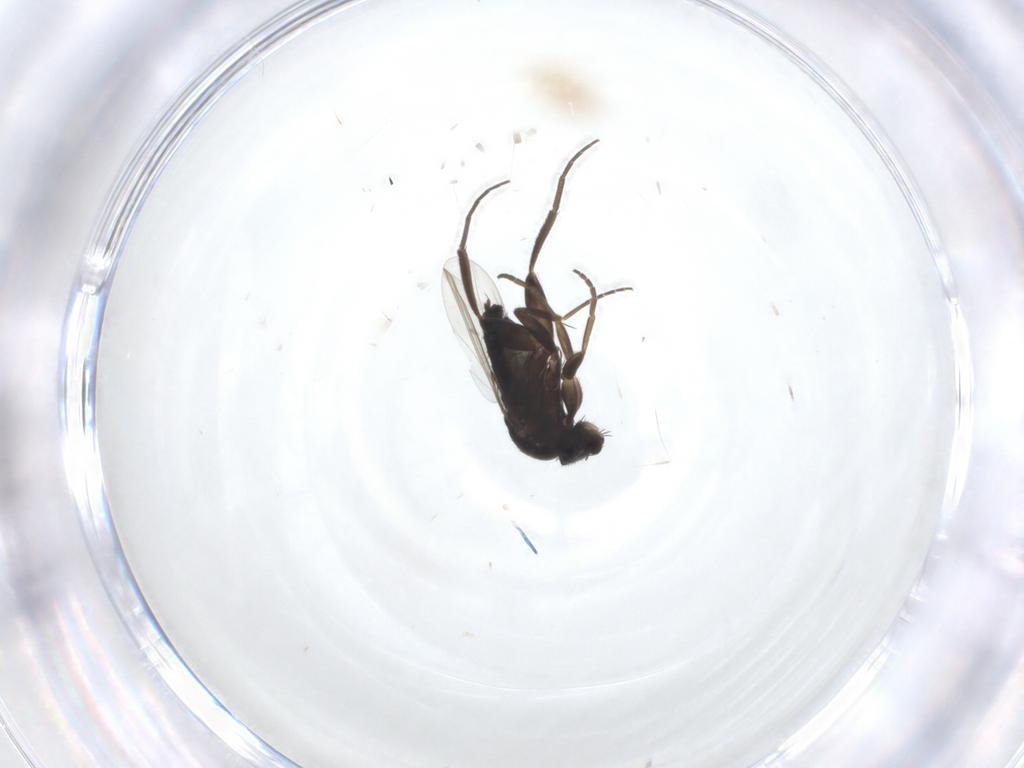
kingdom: Animalia
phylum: Arthropoda
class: Insecta
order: Diptera
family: Phoridae
